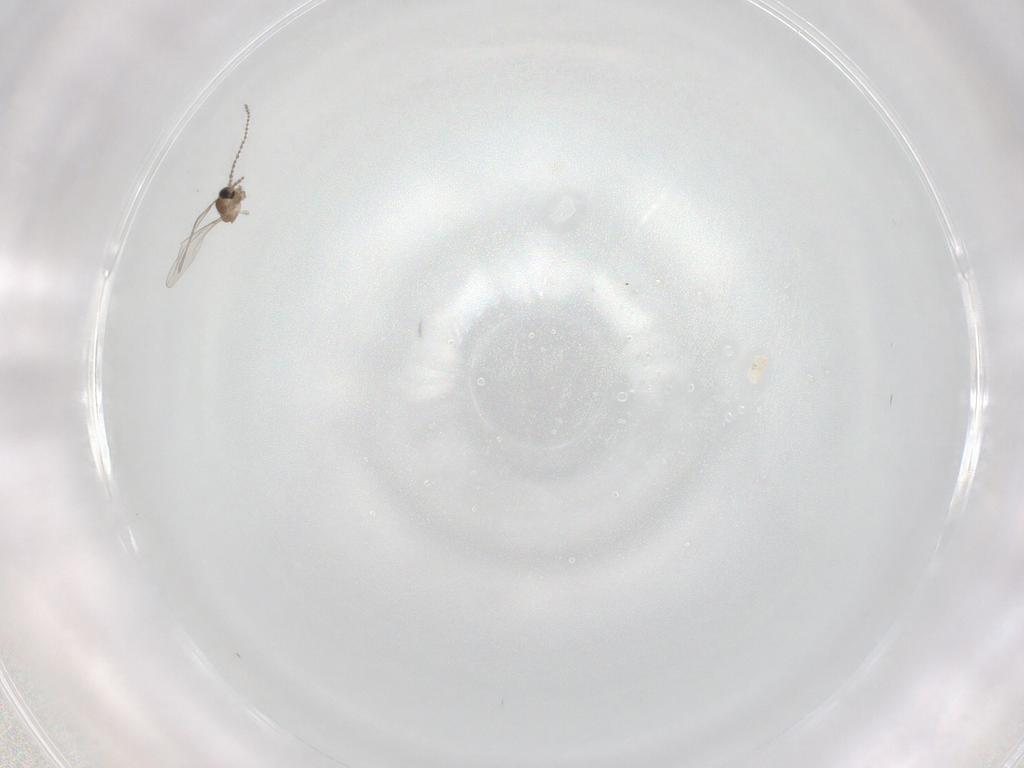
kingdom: Animalia
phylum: Arthropoda
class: Insecta
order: Diptera
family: Cecidomyiidae
